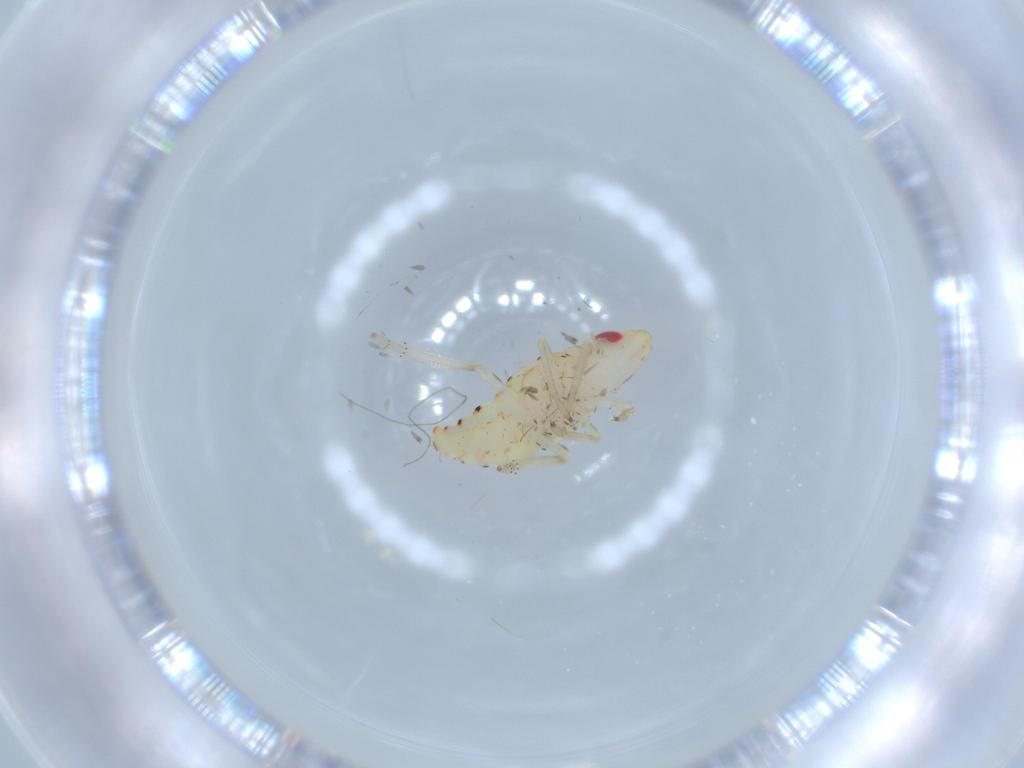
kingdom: Animalia
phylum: Arthropoda
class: Insecta
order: Hemiptera
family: Tropiduchidae
